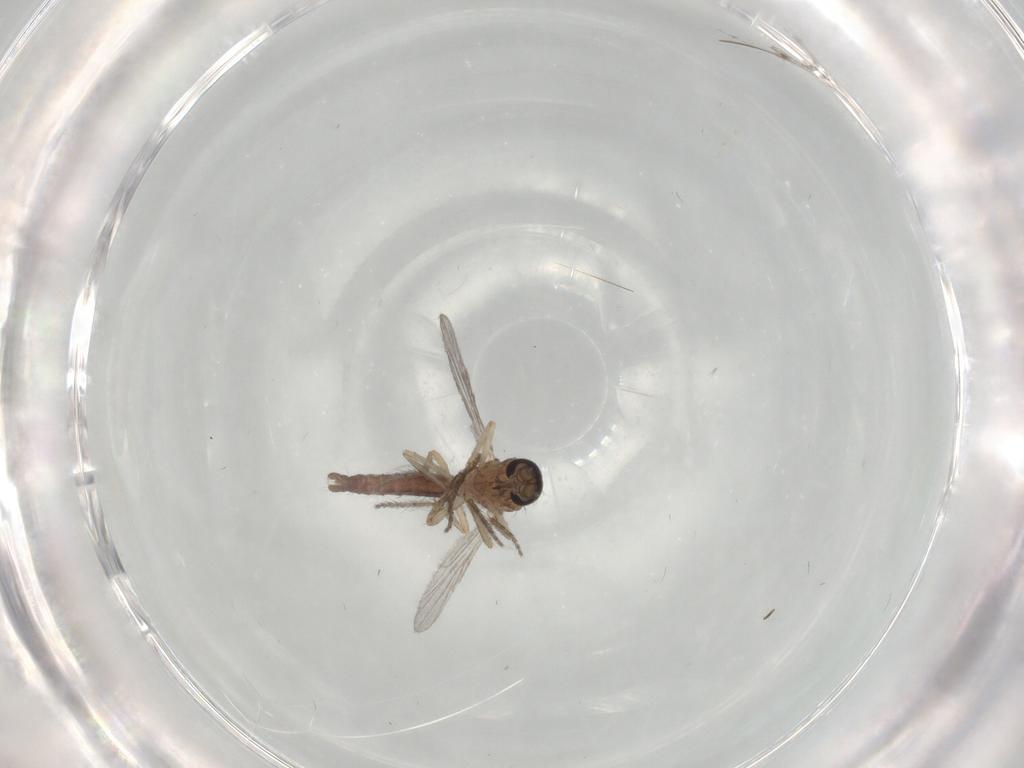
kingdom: Animalia
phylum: Arthropoda
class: Insecta
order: Diptera
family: Ceratopogonidae
